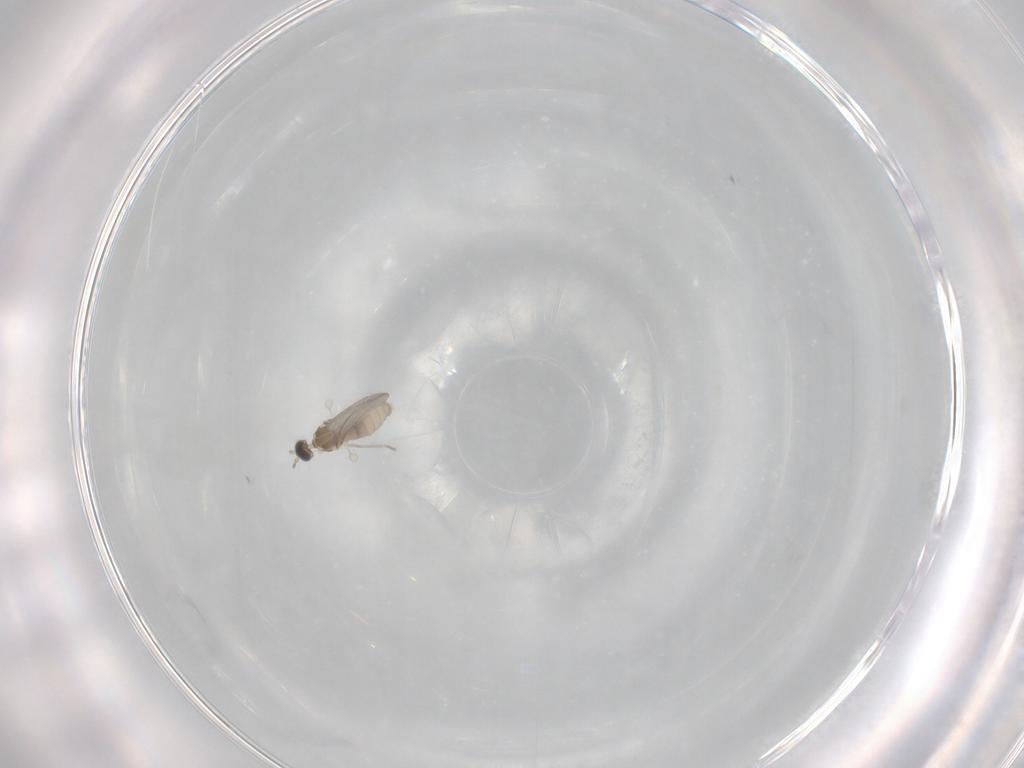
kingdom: Animalia
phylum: Arthropoda
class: Insecta
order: Diptera
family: Cecidomyiidae
